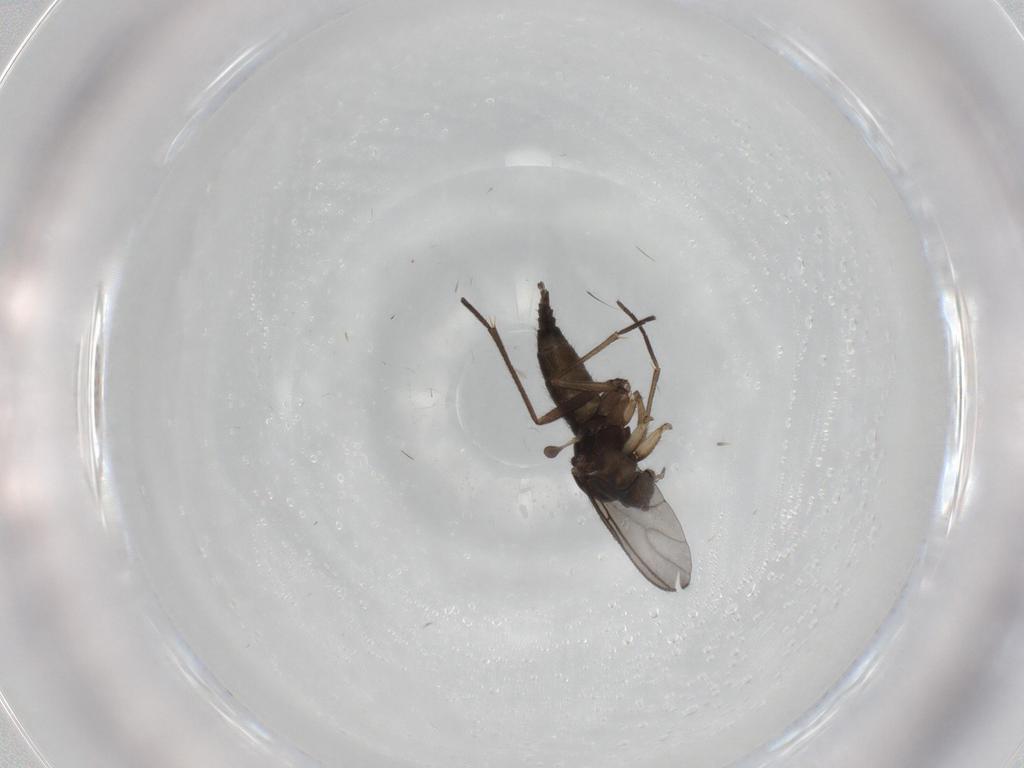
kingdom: Animalia
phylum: Arthropoda
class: Insecta
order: Diptera
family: Sciaridae
